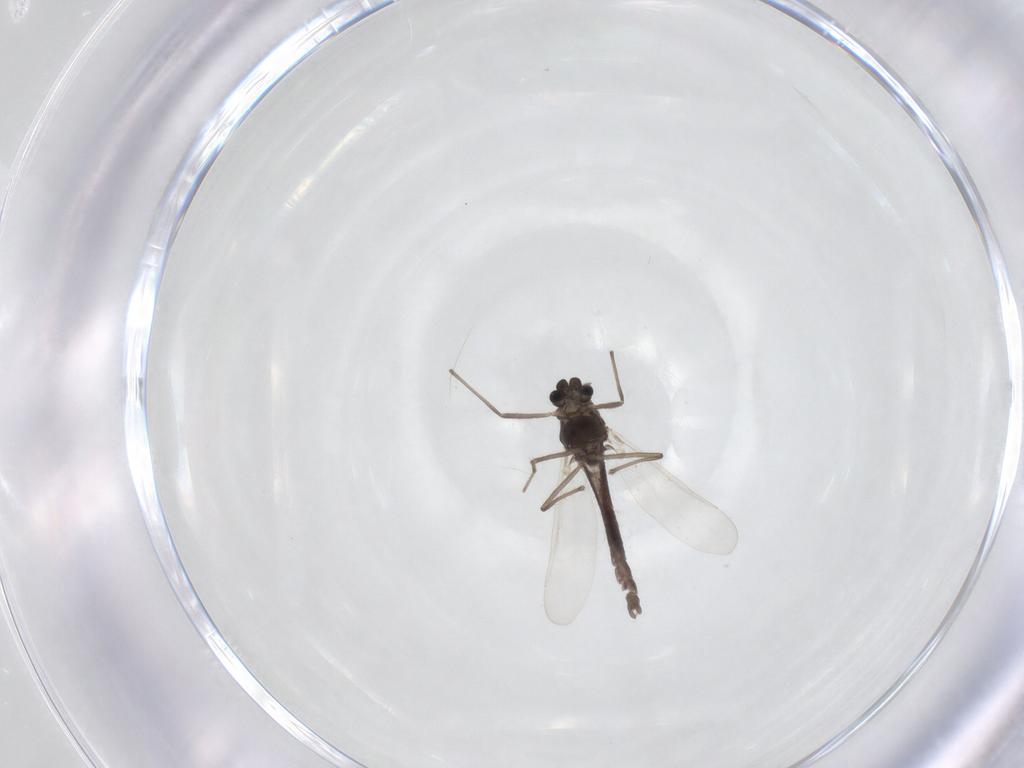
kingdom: Animalia
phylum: Arthropoda
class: Insecta
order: Diptera
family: Chironomidae
